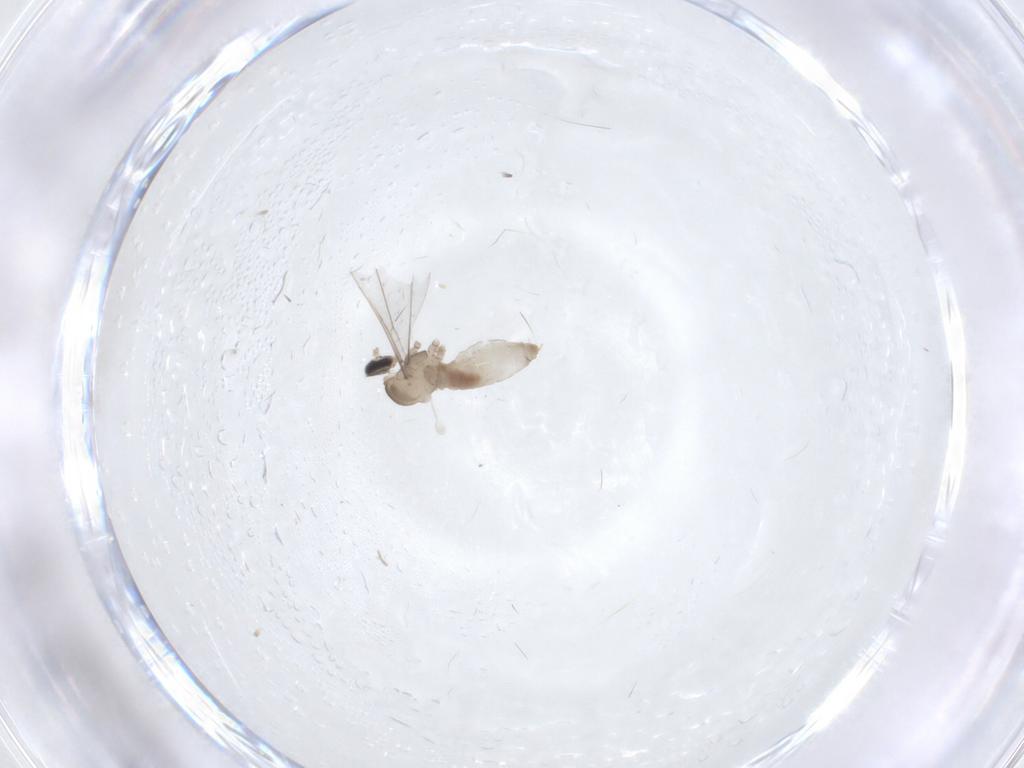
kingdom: Animalia
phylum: Arthropoda
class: Insecta
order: Diptera
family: Cecidomyiidae
